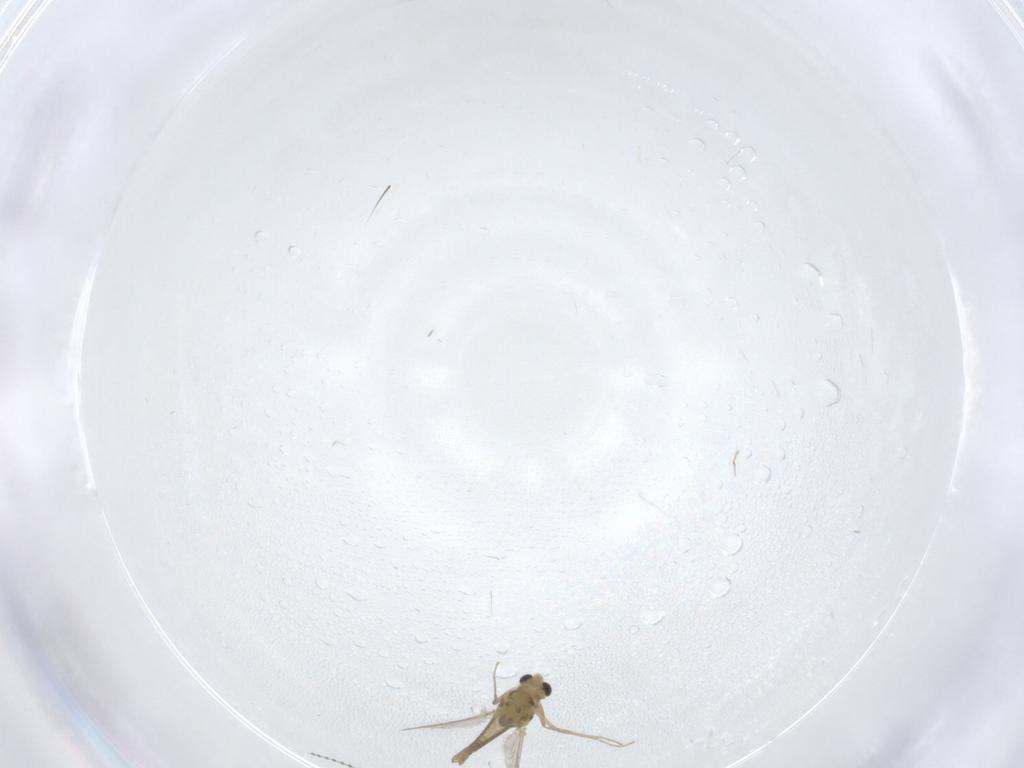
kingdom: Animalia
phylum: Arthropoda
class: Insecta
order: Diptera
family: Chironomidae
